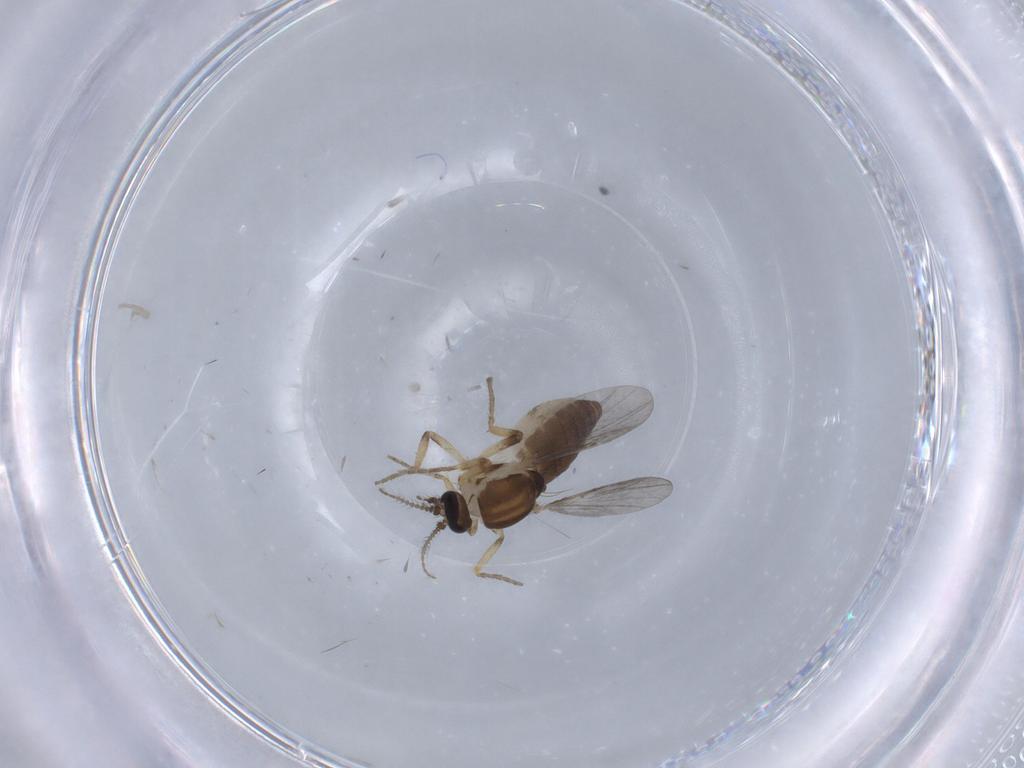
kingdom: Animalia
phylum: Arthropoda
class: Insecta
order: Diptera
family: Ceratopogonidae
